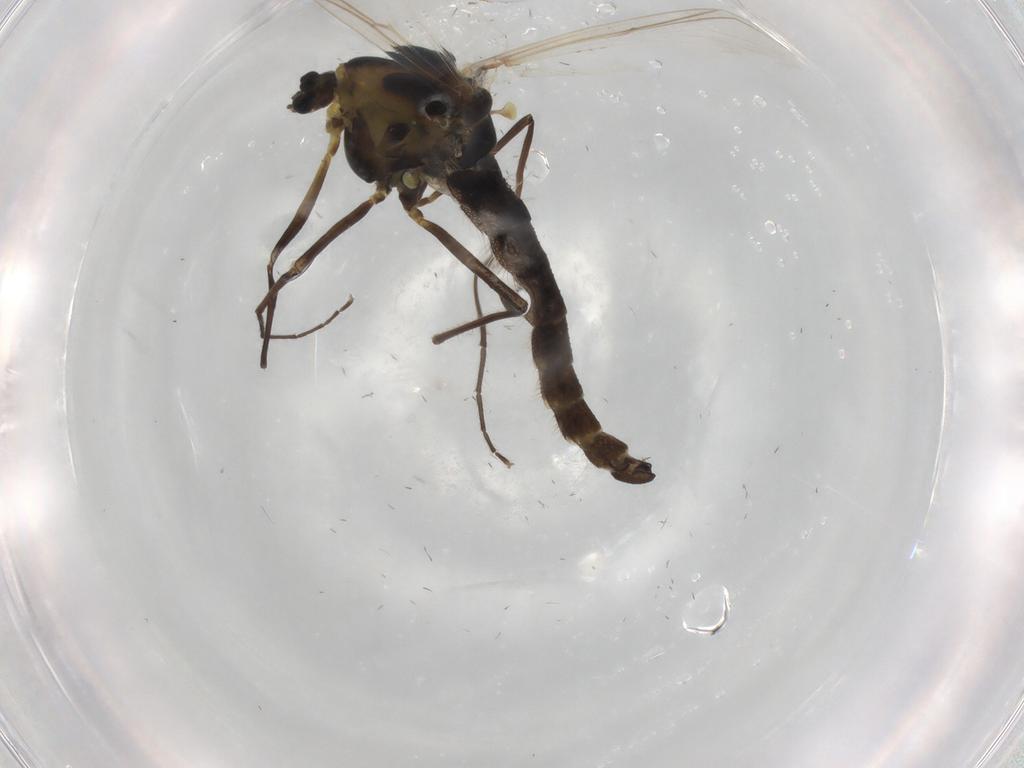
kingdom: Animalia
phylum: Arthropoda
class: Insecta
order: Diptera
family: Chironomidae
